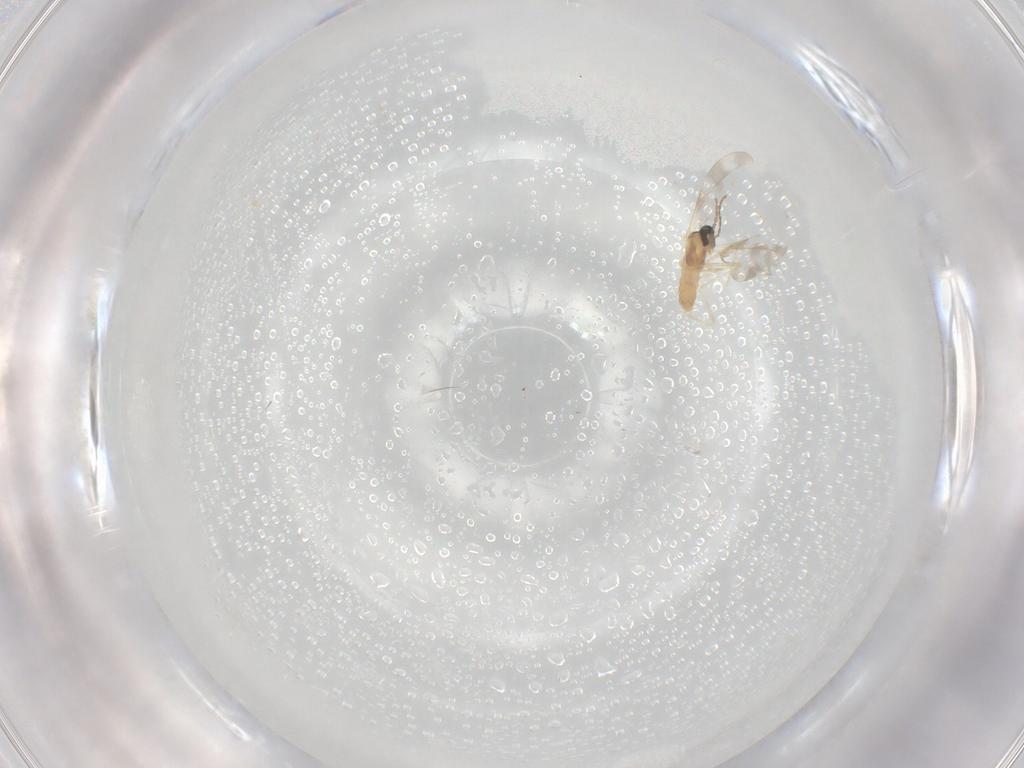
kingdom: Animalia
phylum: Arthropoda
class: Insecta
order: Diptera
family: Cecidomyiidae
